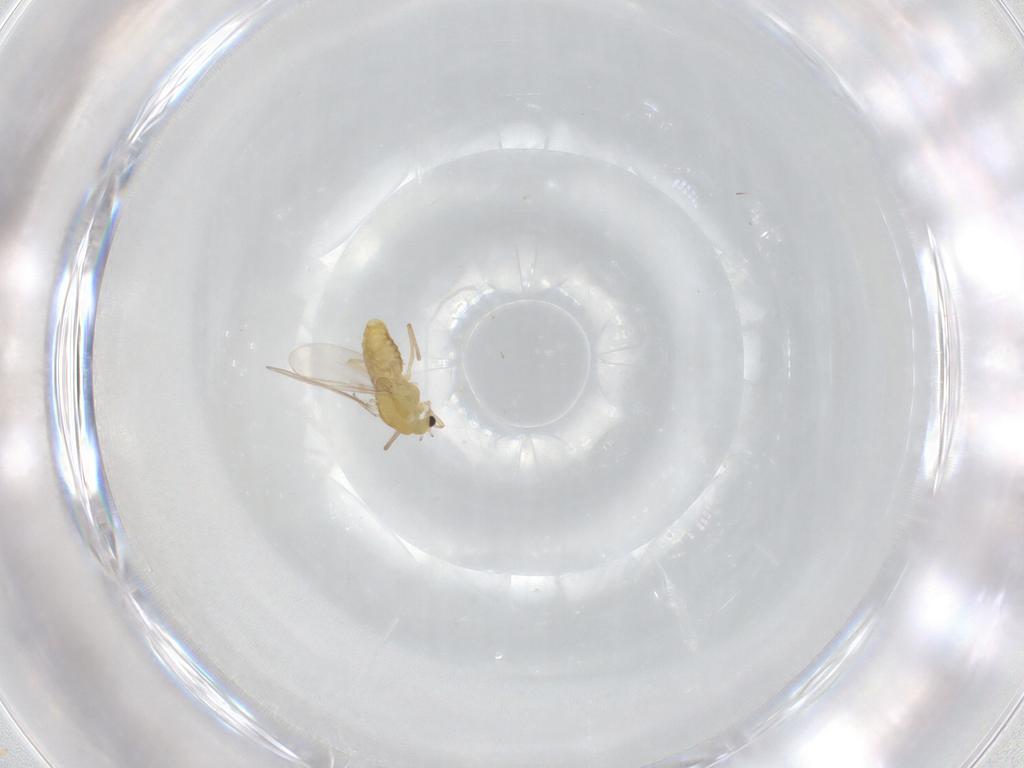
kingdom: Animalia
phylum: Arthropoda
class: Insecta
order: Diptera
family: Chironomidae
